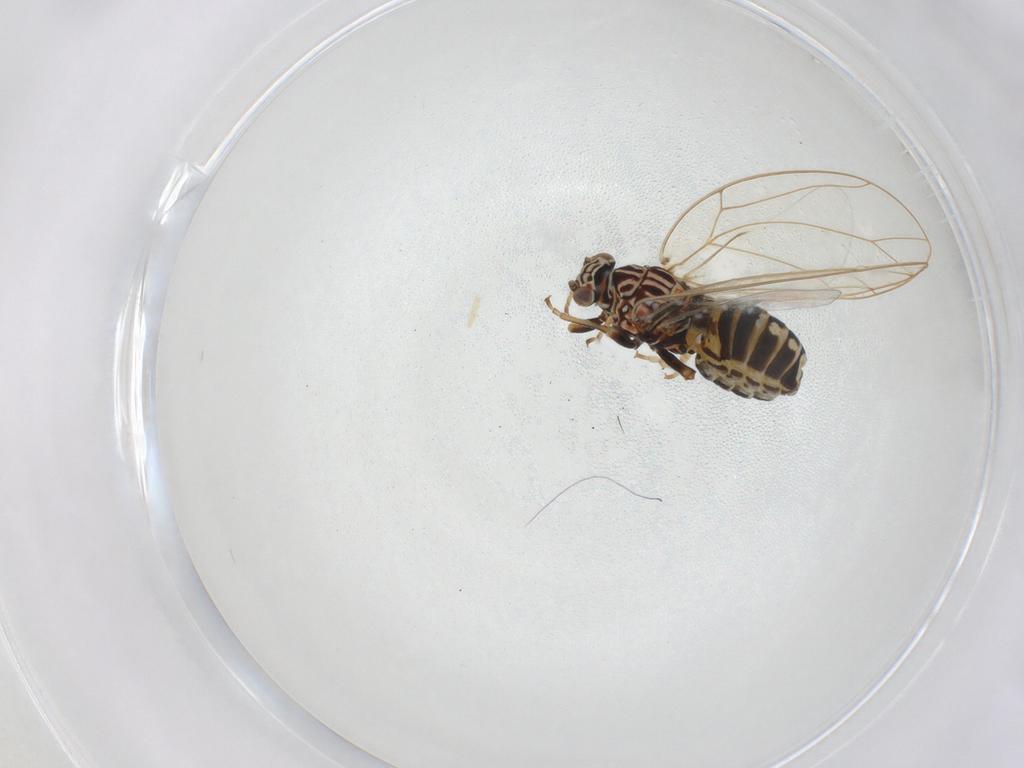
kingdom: Animalia
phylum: Arthropoda
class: Insecta
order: Hemiptera
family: Triozidae
